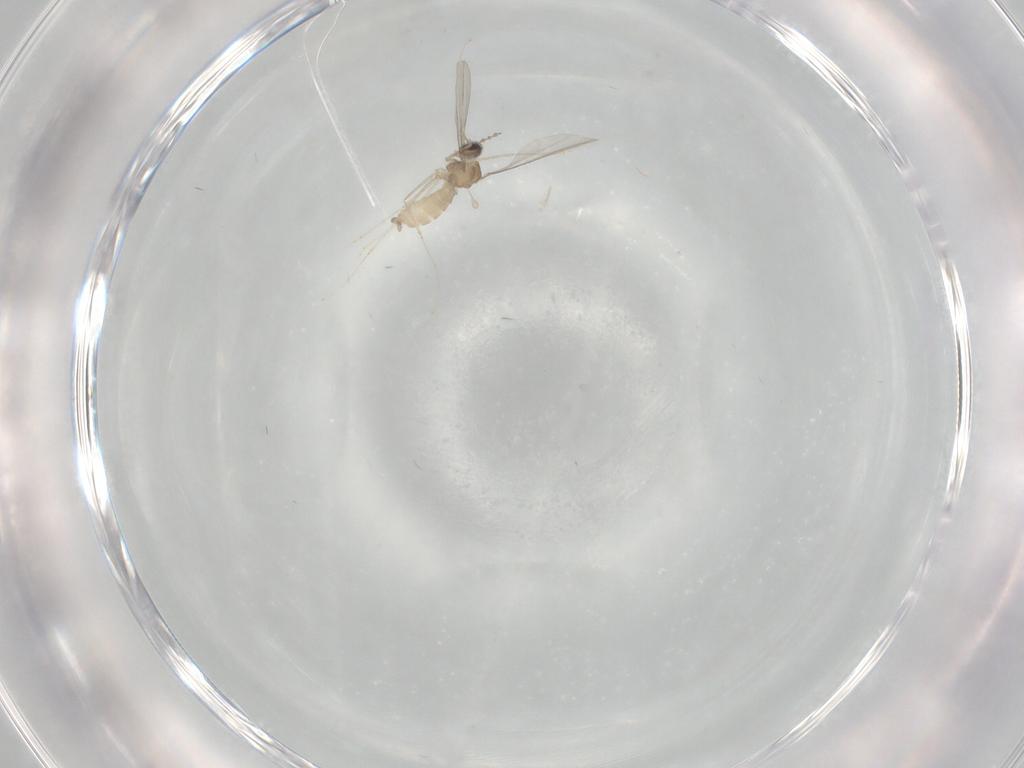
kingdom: Animalia
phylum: Arthropoda
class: Insecta
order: Diptera
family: Psychodidae
